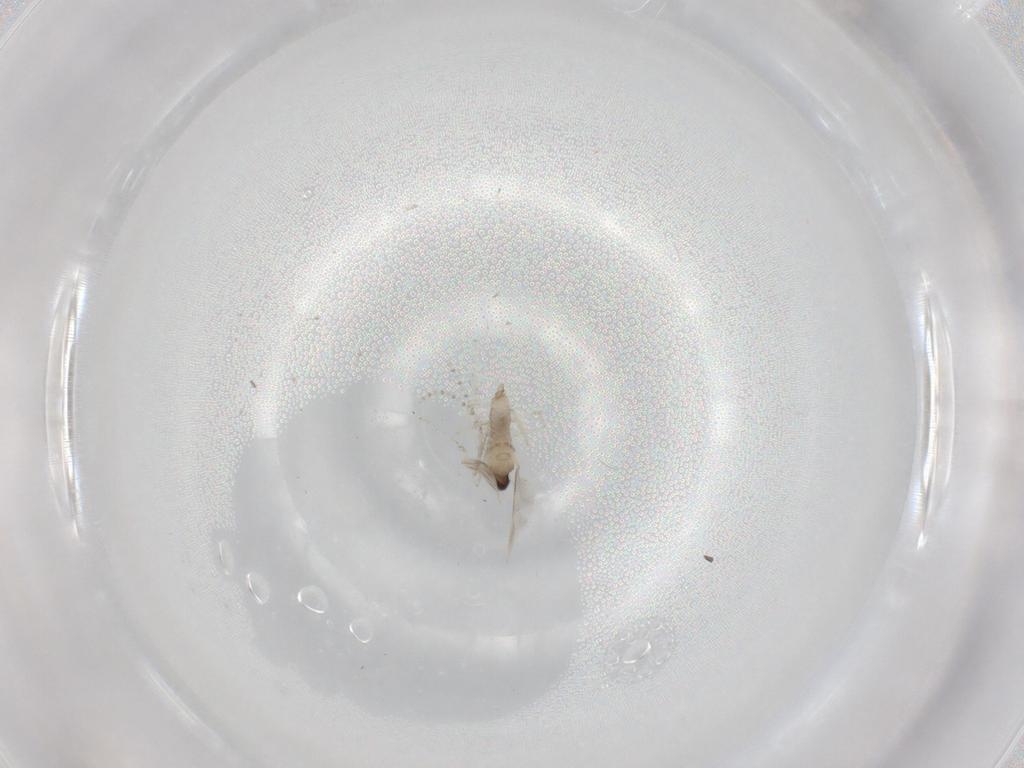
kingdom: Animalia
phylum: Arthropoda
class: Insecta
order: Diptera
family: Cecidomyiidae
